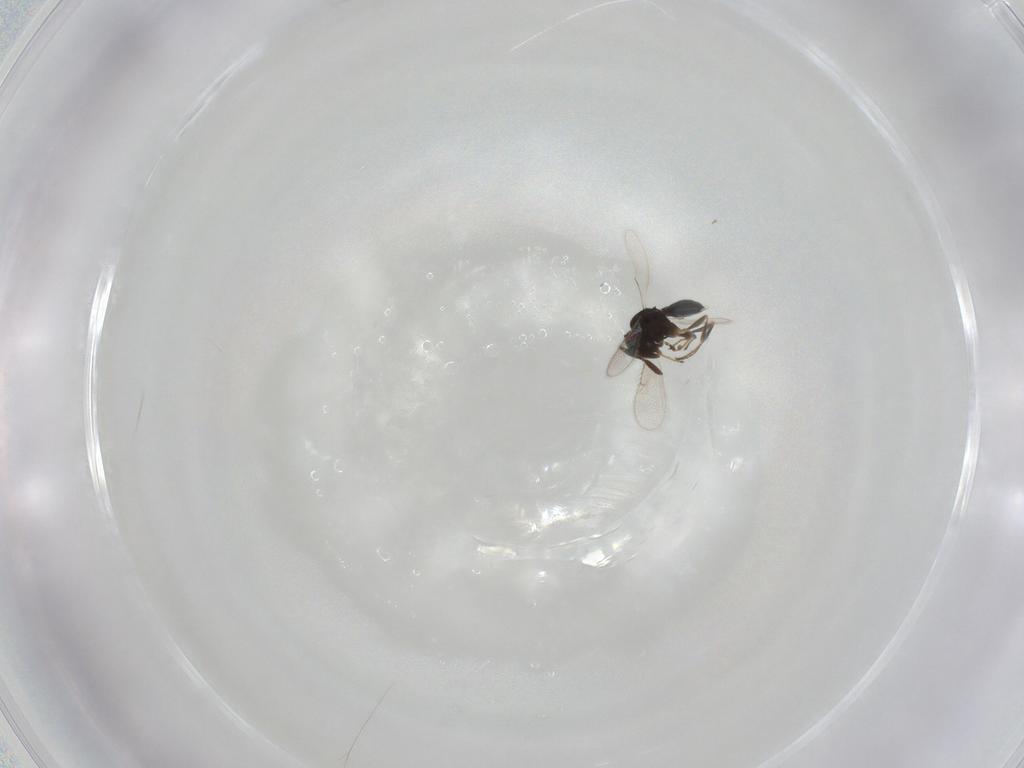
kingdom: Animalia
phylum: Arthropoda
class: Insecta
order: Hymenoptera
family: Scelionidae
